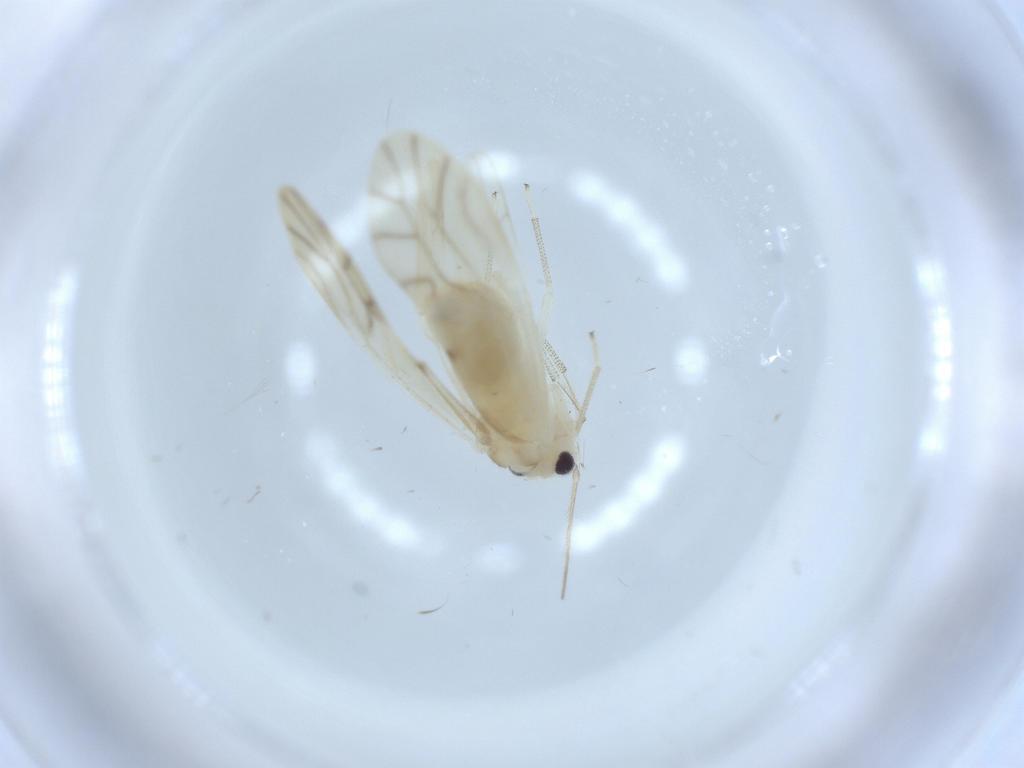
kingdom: Animalia
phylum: Arthropoda
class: Insecta
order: Psocodea
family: Caeciliusidae
